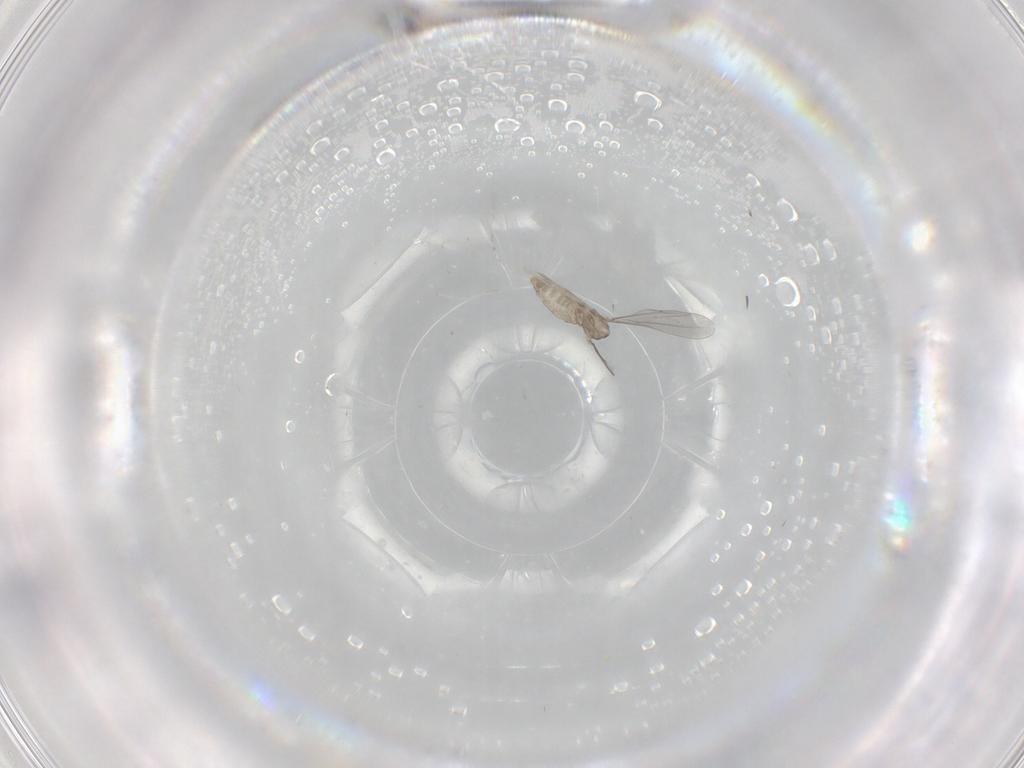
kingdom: Animalia
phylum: Arthropoda
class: Insecta
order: Diptera
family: Cecidomyiidae
